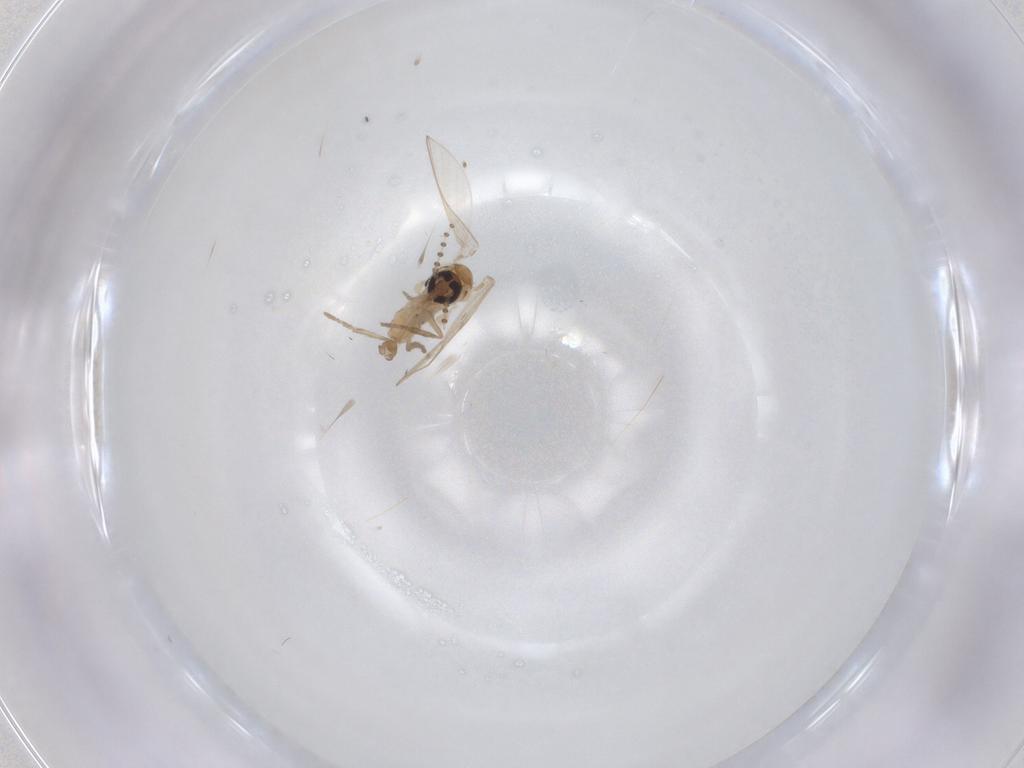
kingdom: Animalia
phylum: Arthropoda
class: Insecta
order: Diptera
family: Psychodidae
